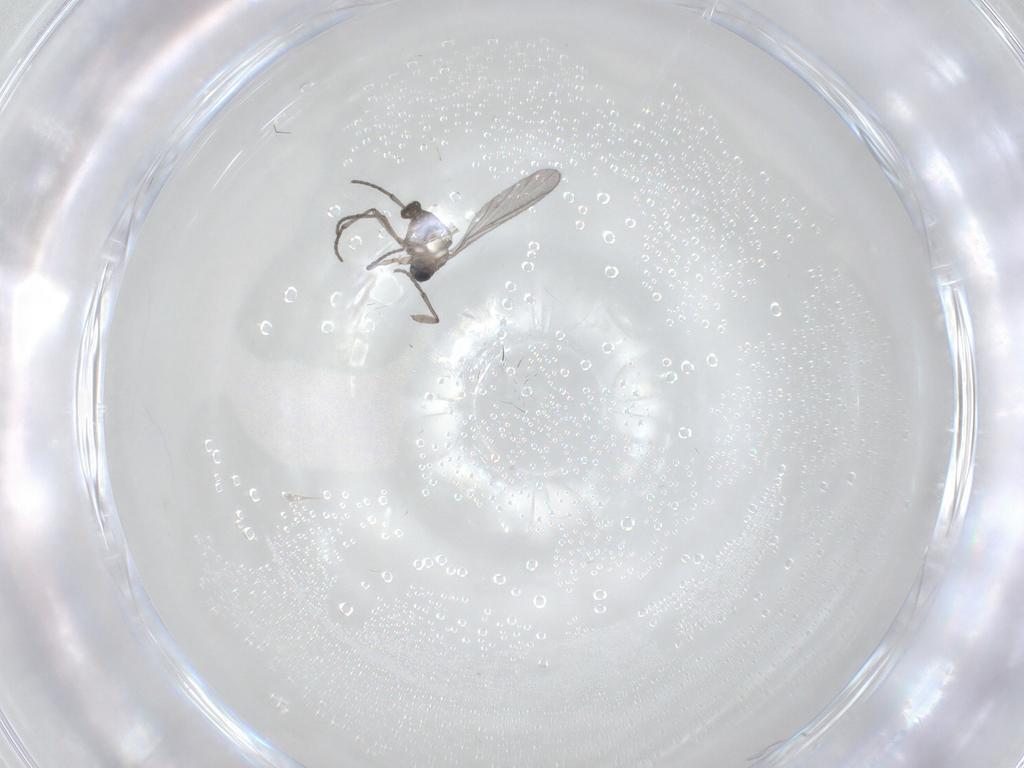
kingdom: Animalia
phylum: Arthropoda
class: Insecta
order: Diptera
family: Sciaridae
